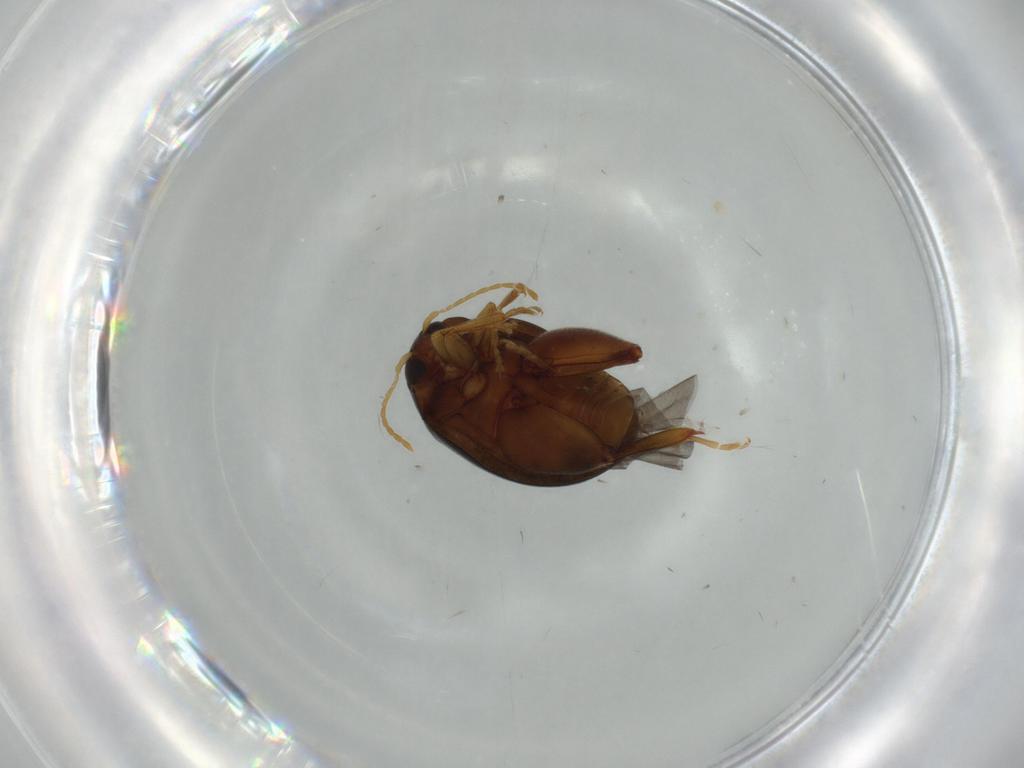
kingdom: Animalia
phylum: Arthropoda
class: Insecta
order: Coleoptera
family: Chrysomelidae
